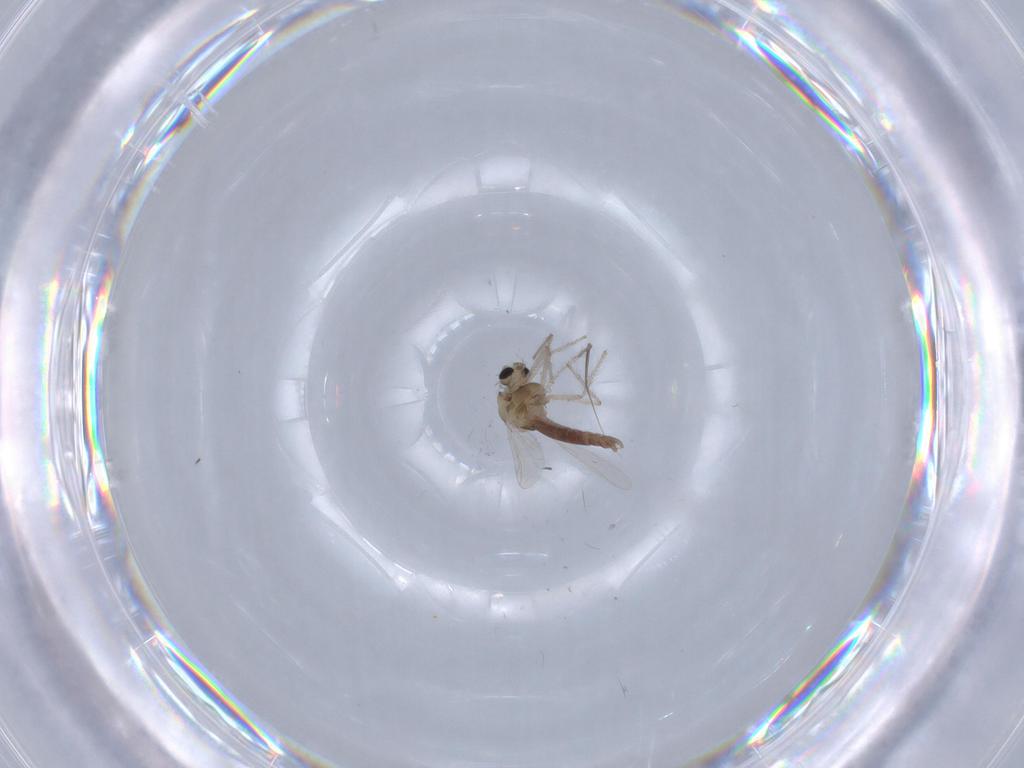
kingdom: Animalia
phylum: Arthropoda
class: Insecta
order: Diptera
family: Chironomidae
